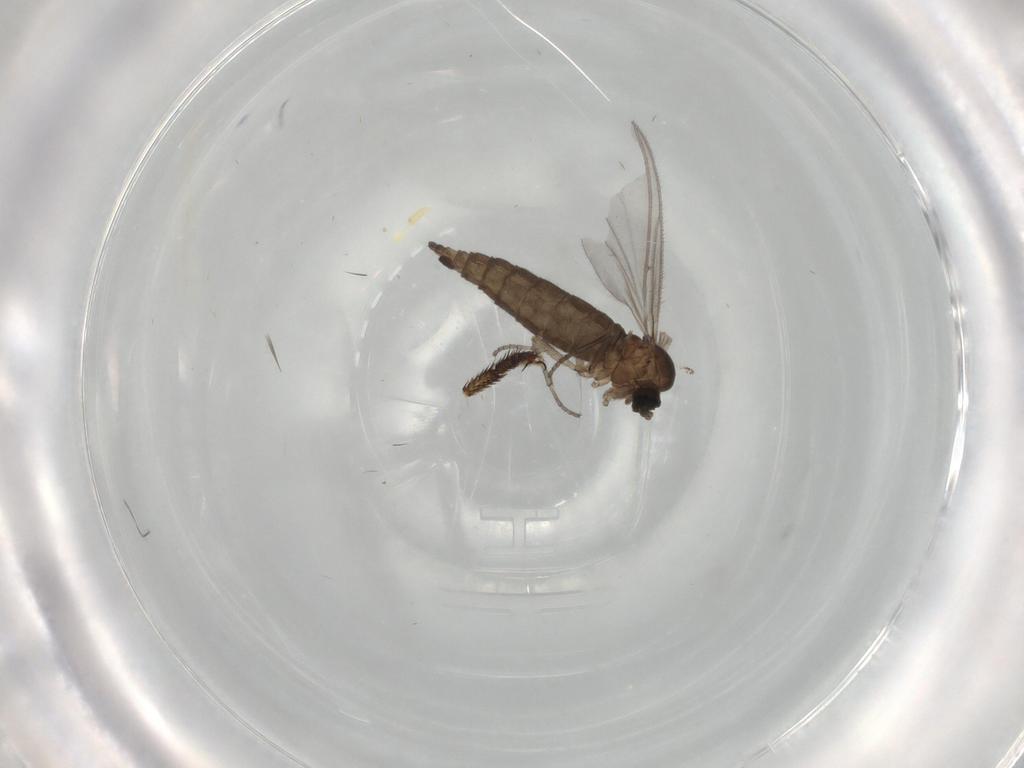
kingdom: Animalia
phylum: Arthropoda
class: Insecta
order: Diptera
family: Micropezidae
